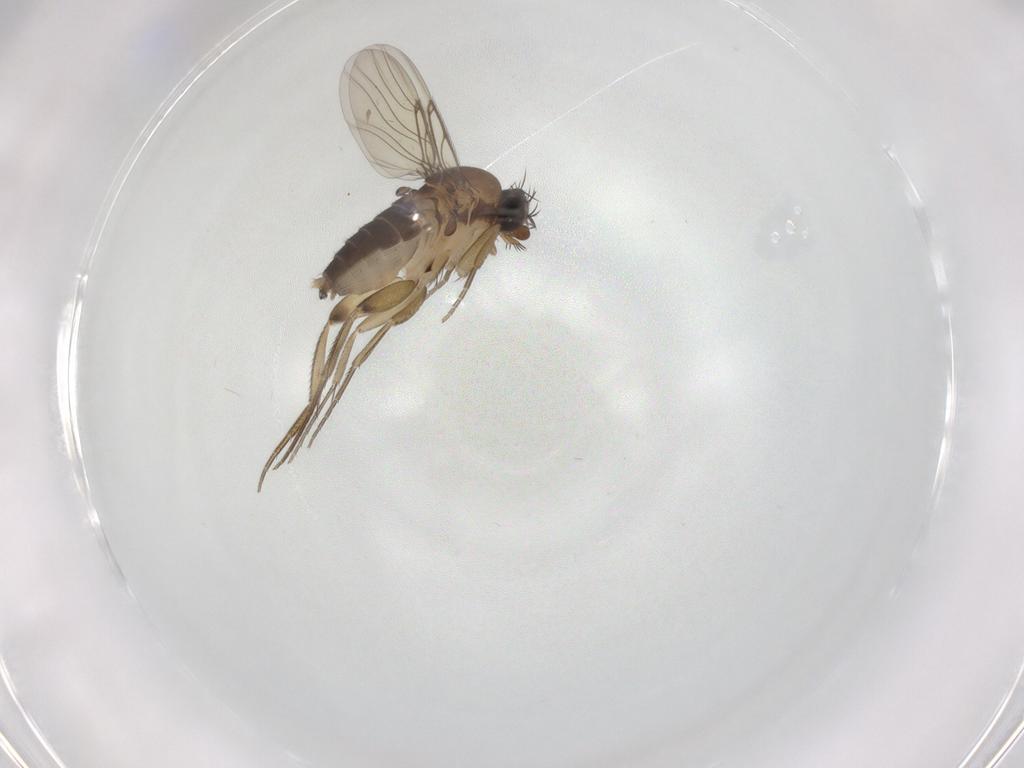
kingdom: Animalia
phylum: Arthropoda
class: Insecta
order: Diptera
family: Phoridae
